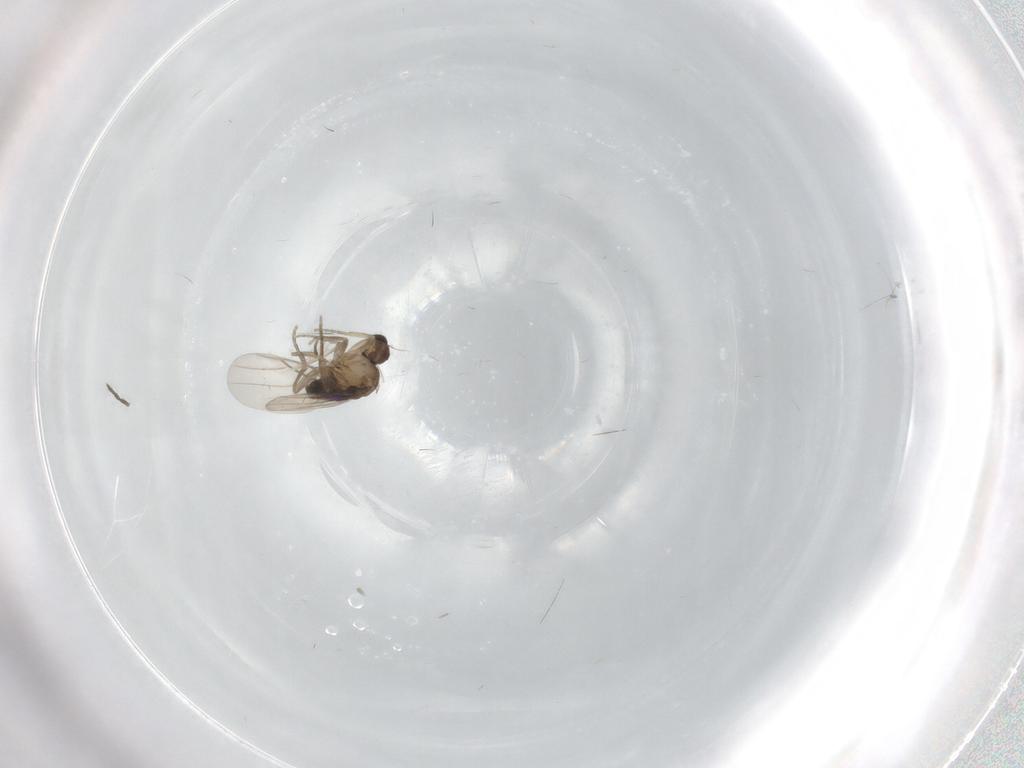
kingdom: Animalia
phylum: Arthropoda
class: Insecta
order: Diptera
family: Phoridae
